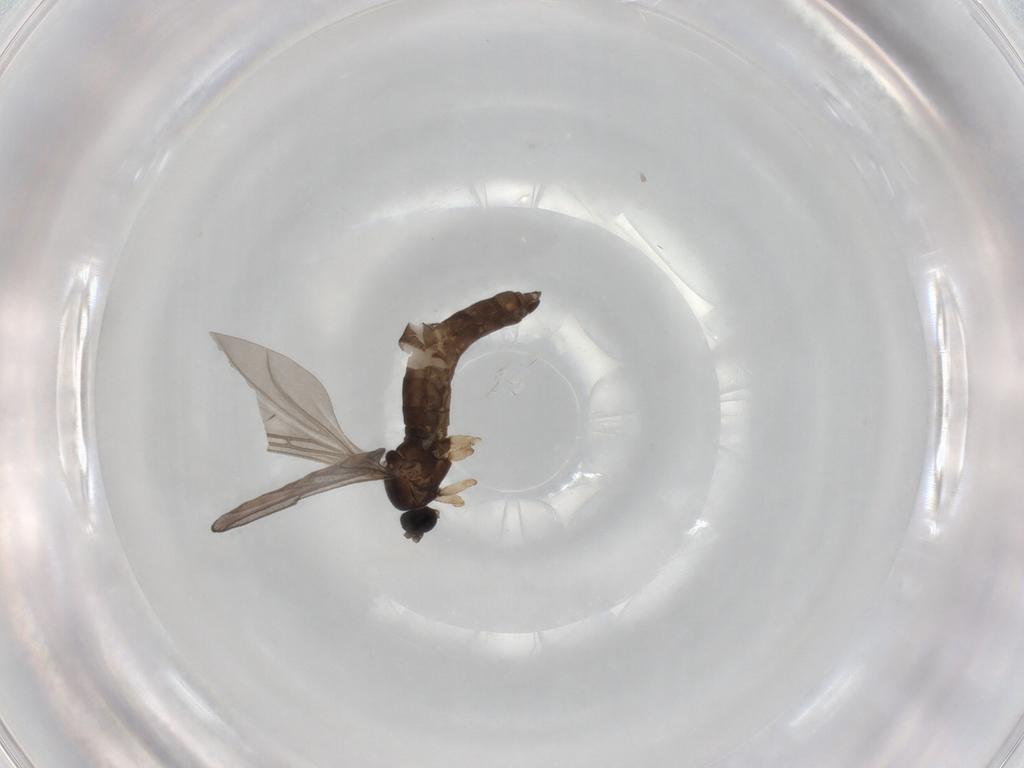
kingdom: Animalia
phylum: Arthropoda
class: Insecta
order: Diptera
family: Sciaridae
